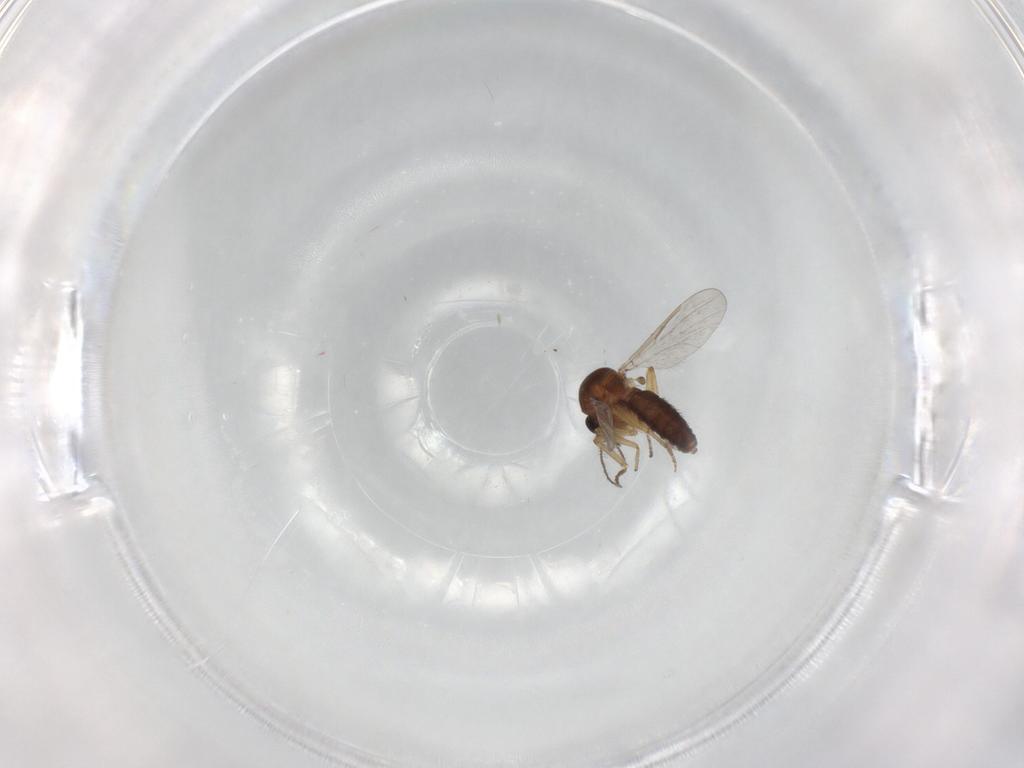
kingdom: Animalia
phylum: Arthropoda
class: Insecta
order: Diptera
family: Ceratopogonidae
